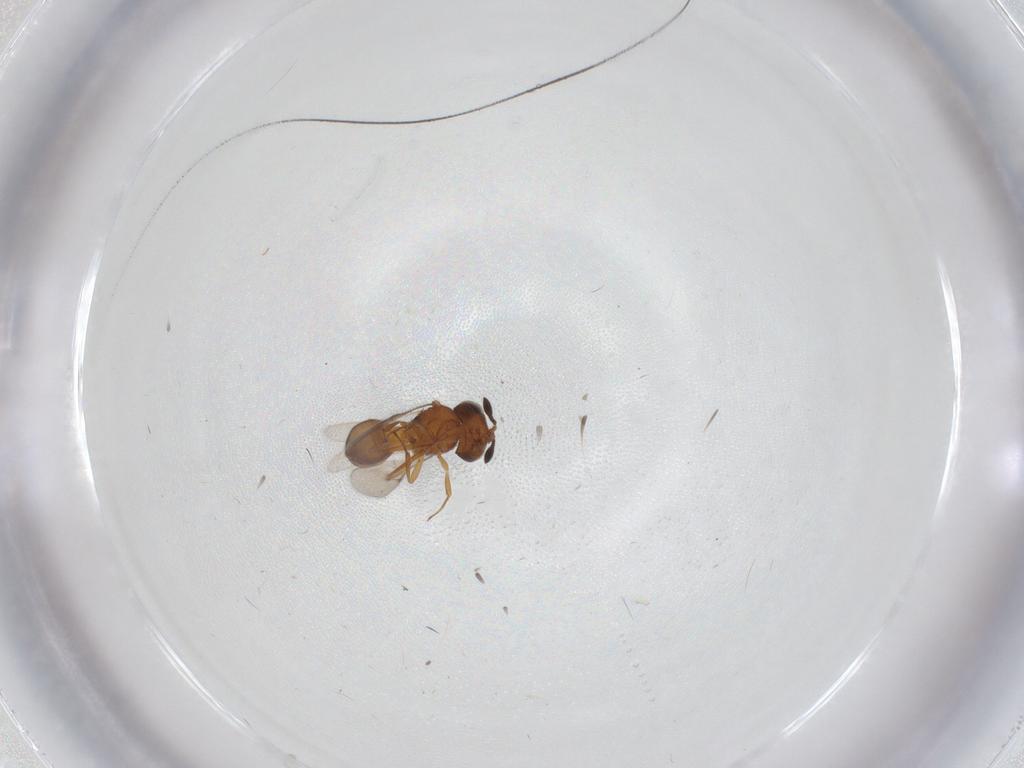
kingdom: Animalia
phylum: Arthropoda
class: Insecta
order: Hymenoptera
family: Scelionidae
